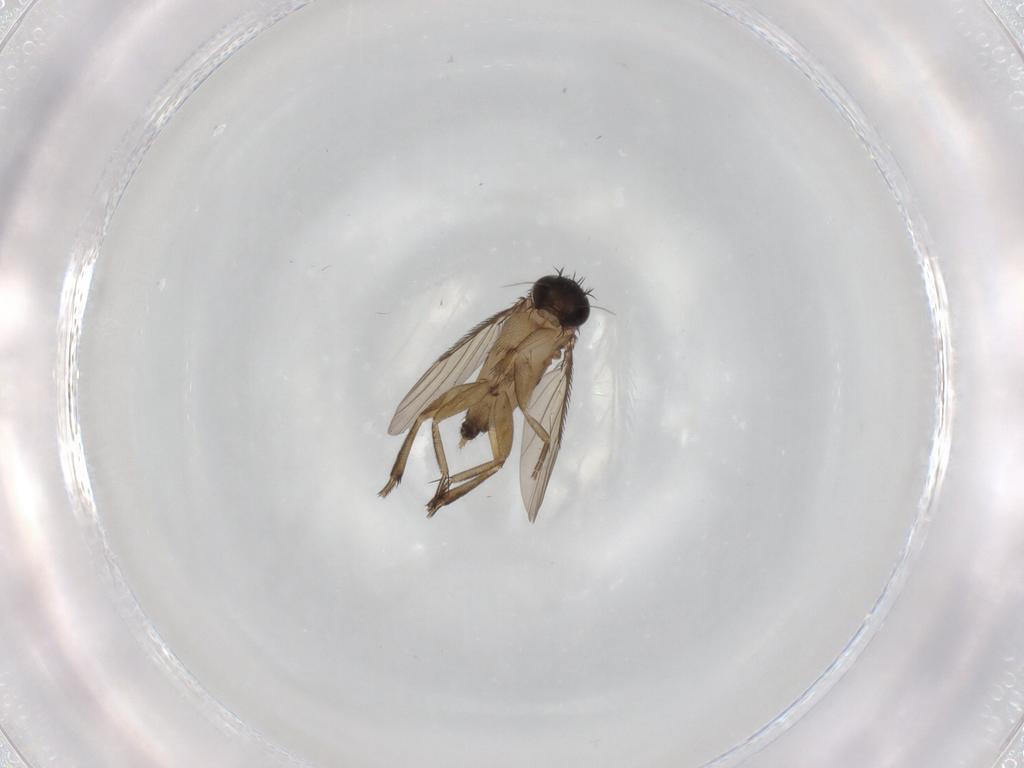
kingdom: Animalia
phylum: Arthropoda
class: Insecta
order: Diptera
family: Phoridae
